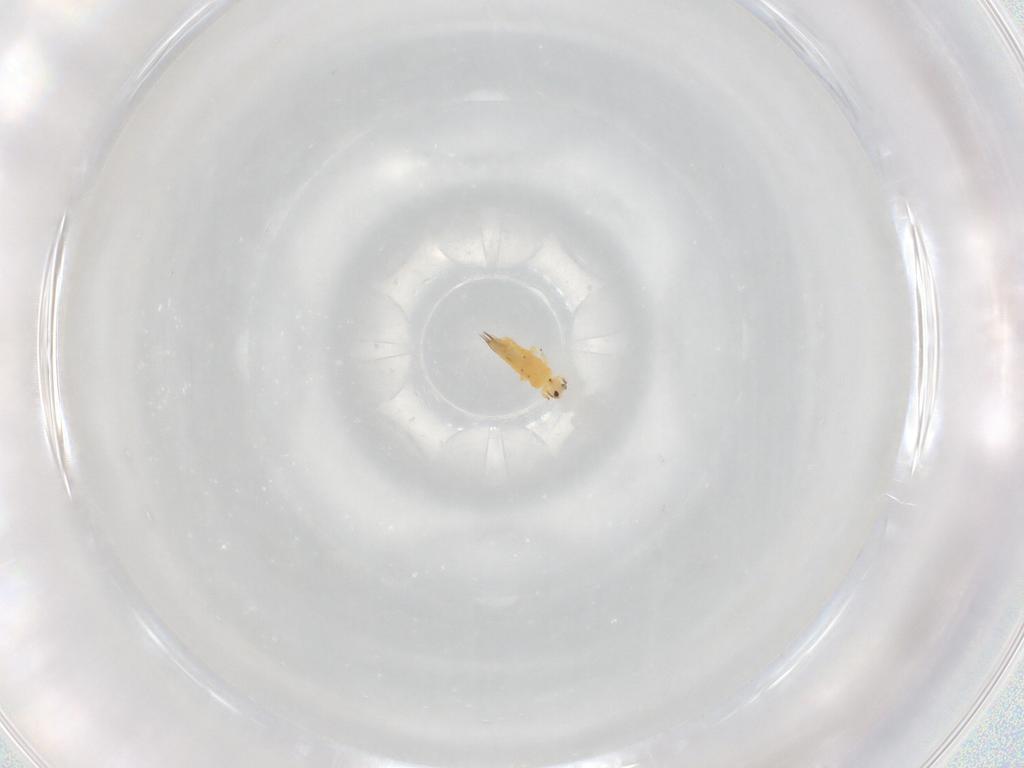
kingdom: Animalia
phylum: Arthropoda
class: Insecta
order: Thysanoptera
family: Thripidae
